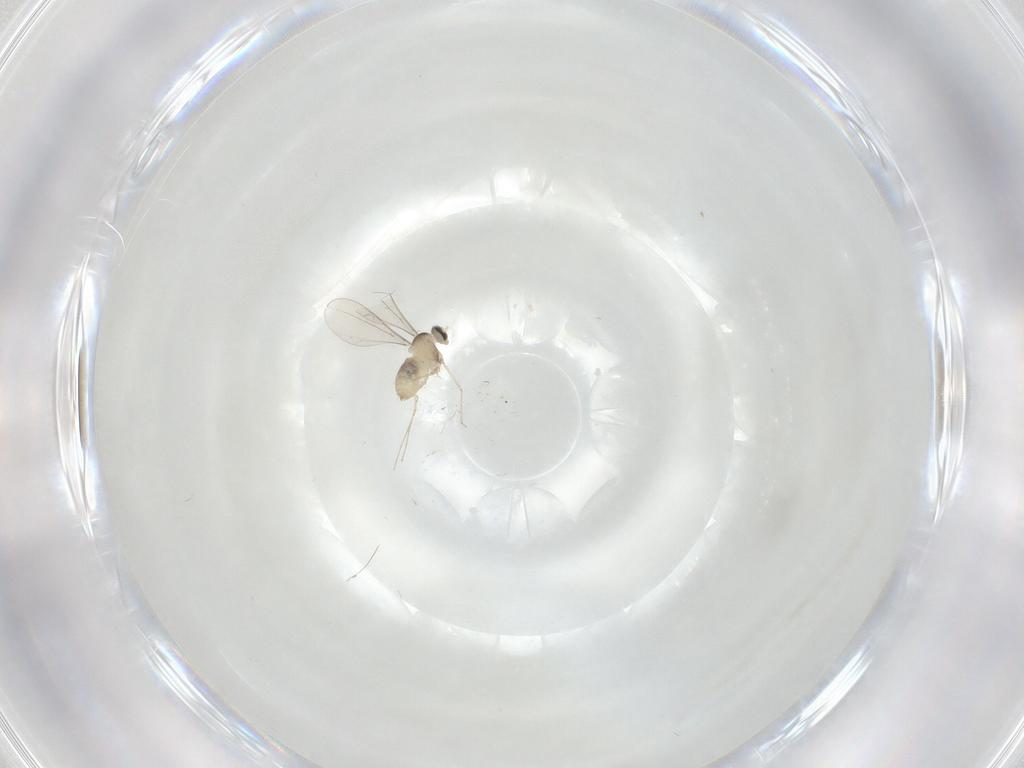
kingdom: Animalia
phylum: Arthropoda
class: Insecta
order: Diptera
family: Cecidomyiidae
